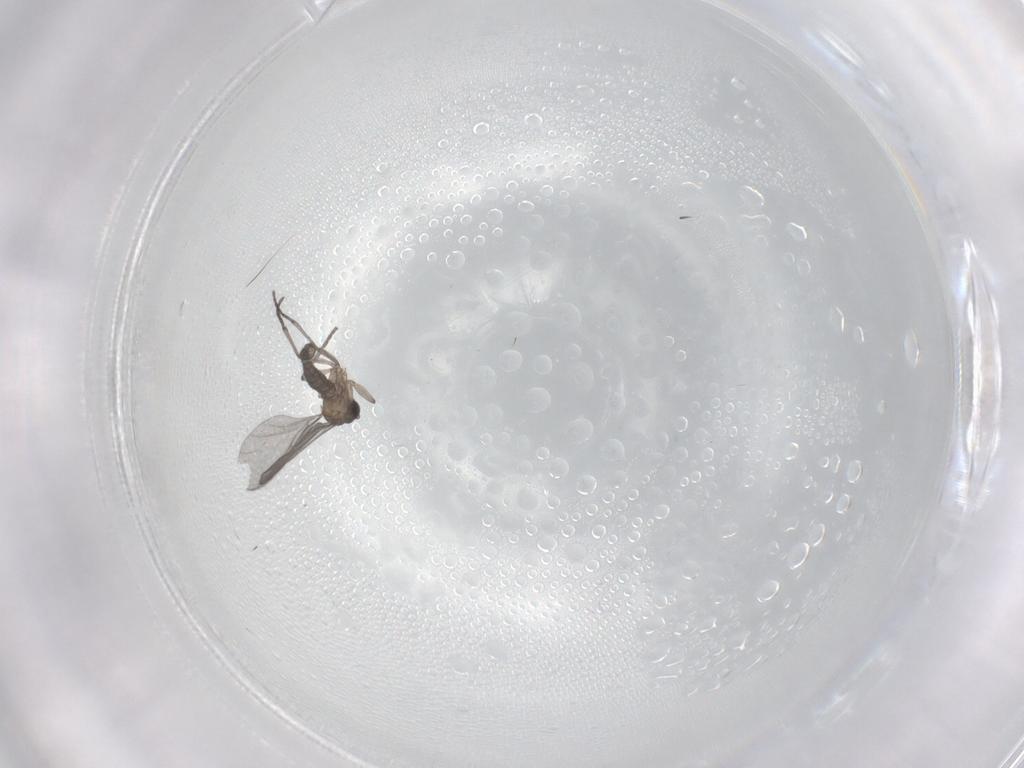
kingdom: Animalia
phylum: Arthropoda
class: Insecta
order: Diptera
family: Sciaridae
